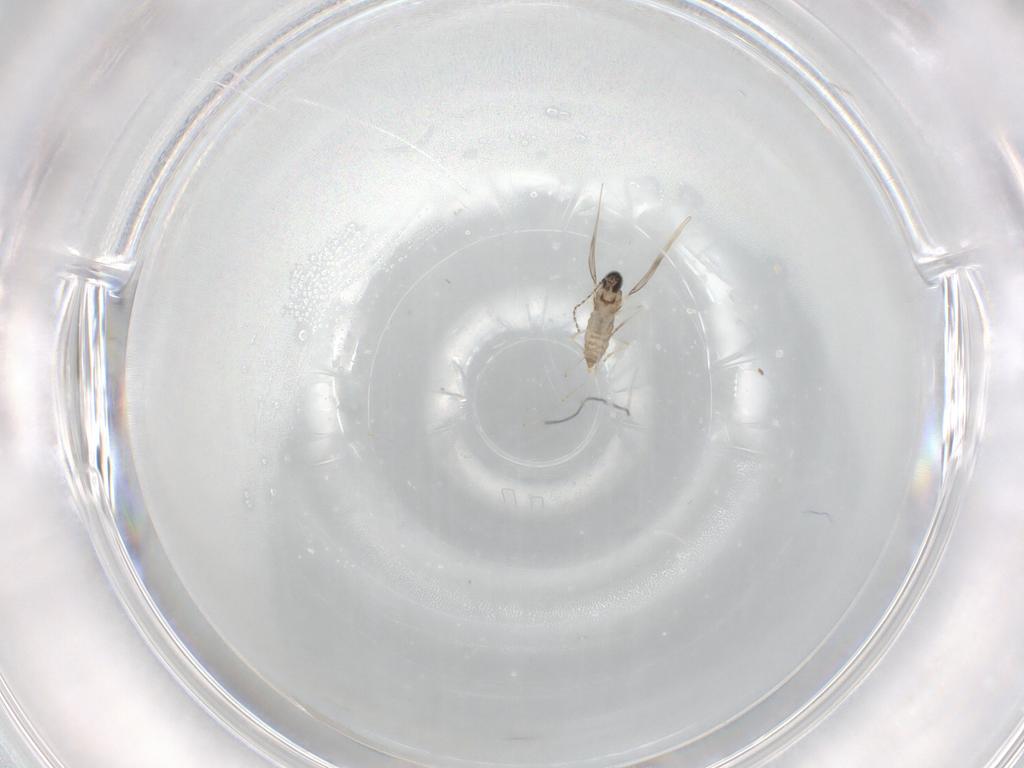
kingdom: Animalia
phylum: Arthropoda
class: Insecta
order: Diptera
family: Cecidomyiidae
